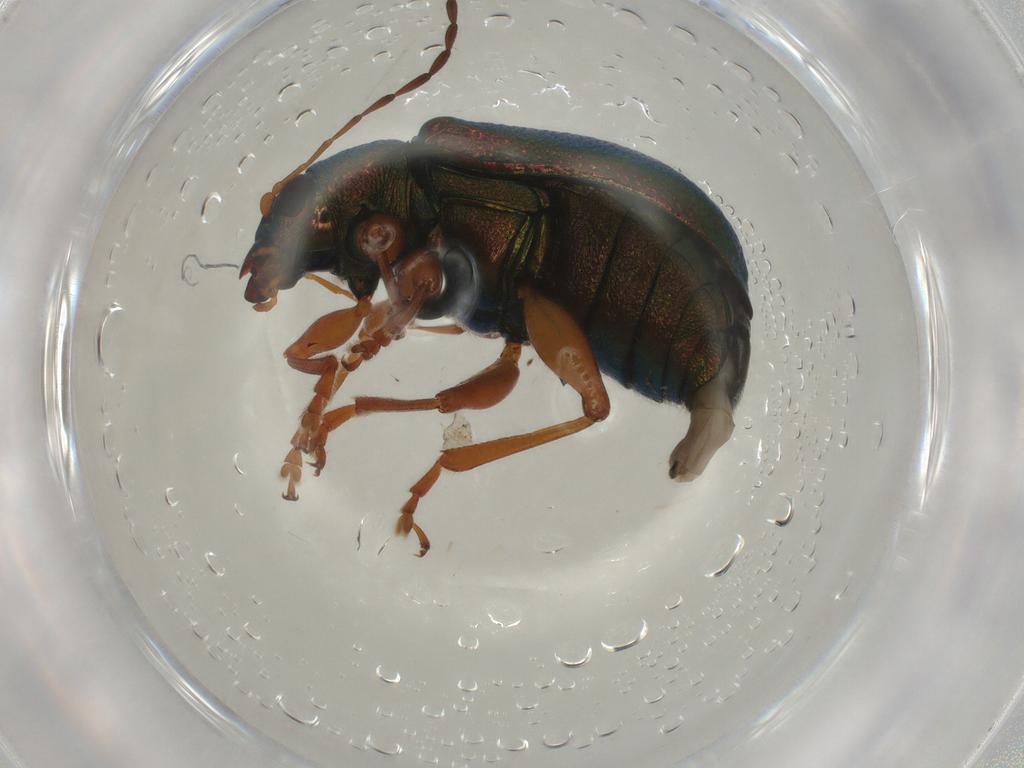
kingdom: Animalia
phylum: Arthropoda
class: Insecta
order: Coleoptera
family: Chrysomelidae
